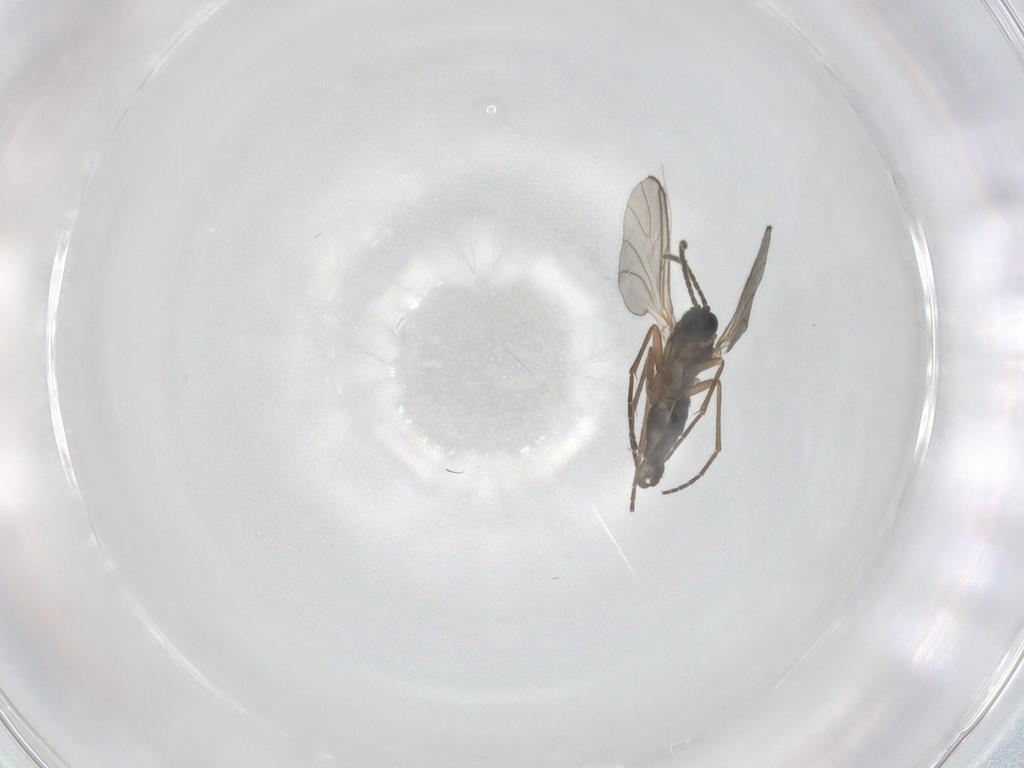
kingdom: Animalia
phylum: Arthropoda
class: Insecta
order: Diptera
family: Sciaridae
